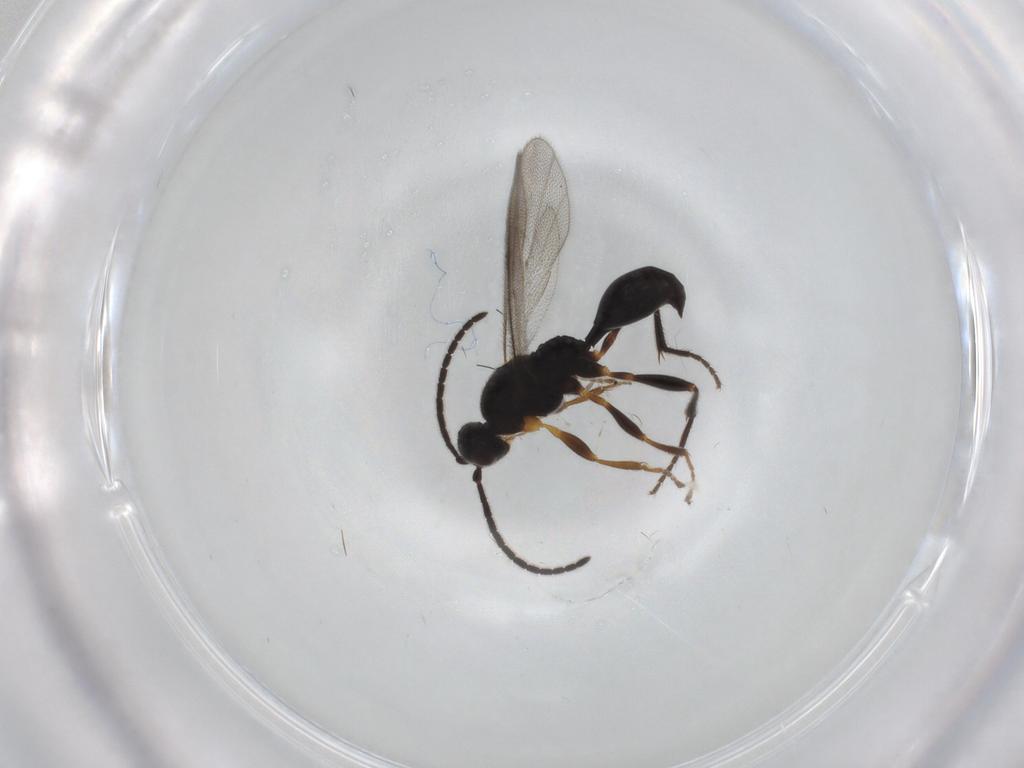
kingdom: Animalia
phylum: Arthropoda
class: Insecta
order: Hymenoptera
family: Proctotrupidae
